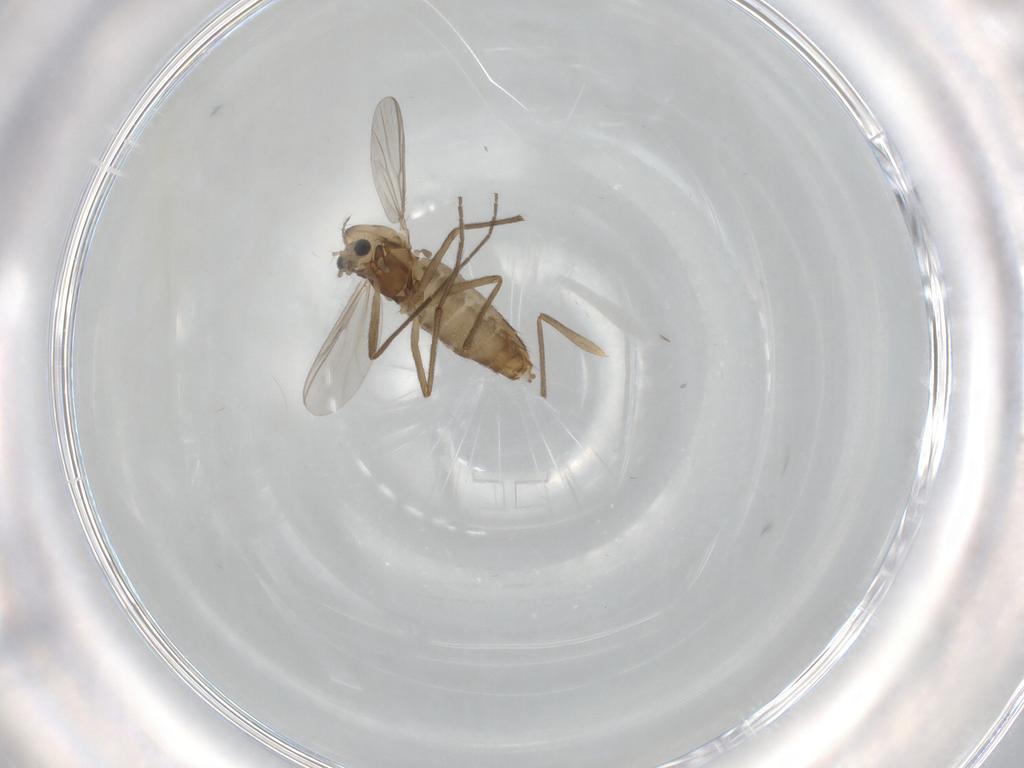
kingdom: Animalia
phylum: Arthropoda
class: Insecta
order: Diptera
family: Chironomidae
